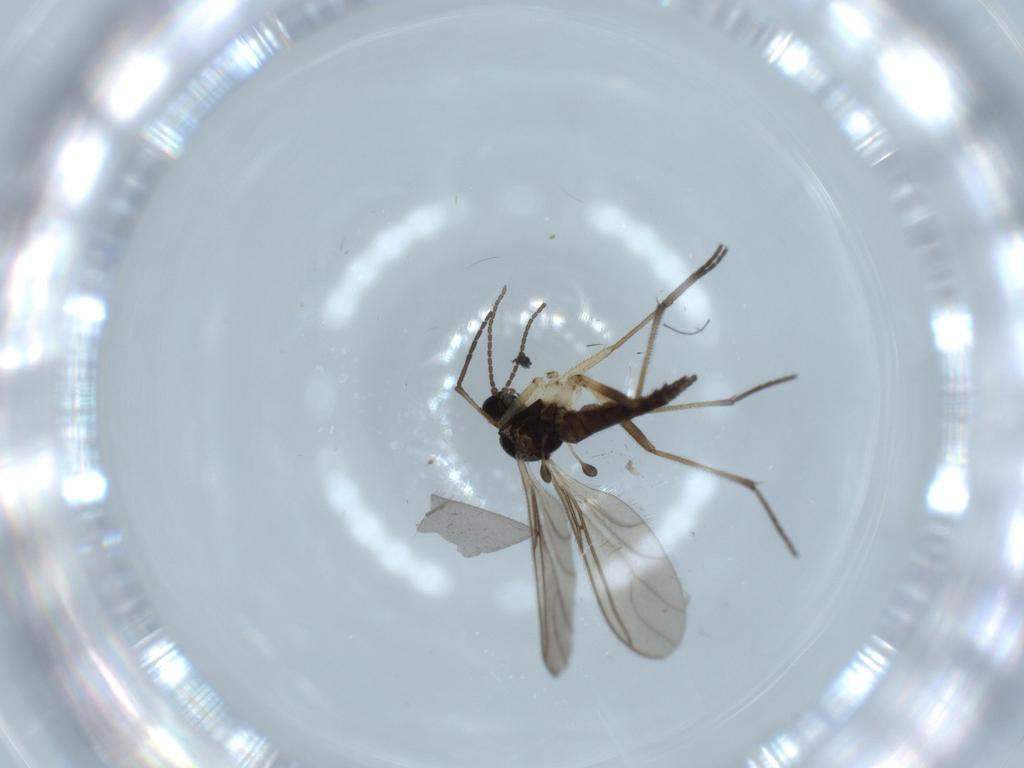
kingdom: Animalia
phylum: Arthropoda
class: Insecta
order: Diptera
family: Sciaridae
